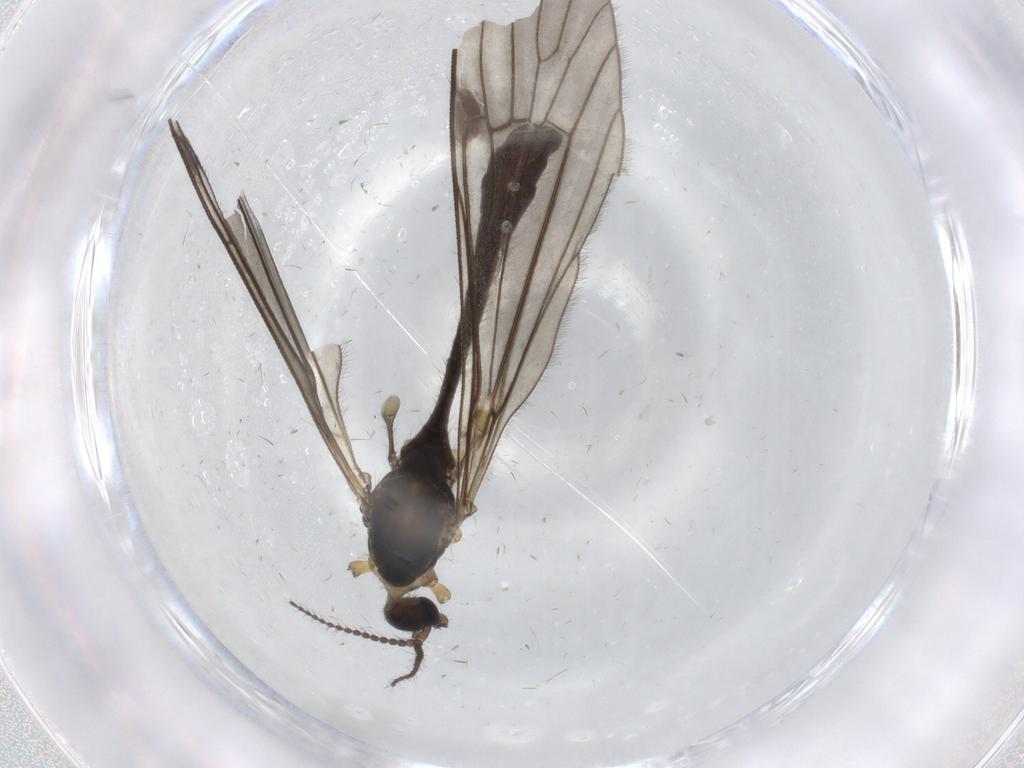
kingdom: Animalia
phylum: Arthropoda
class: Insecta
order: Diptera
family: Limoniidae
